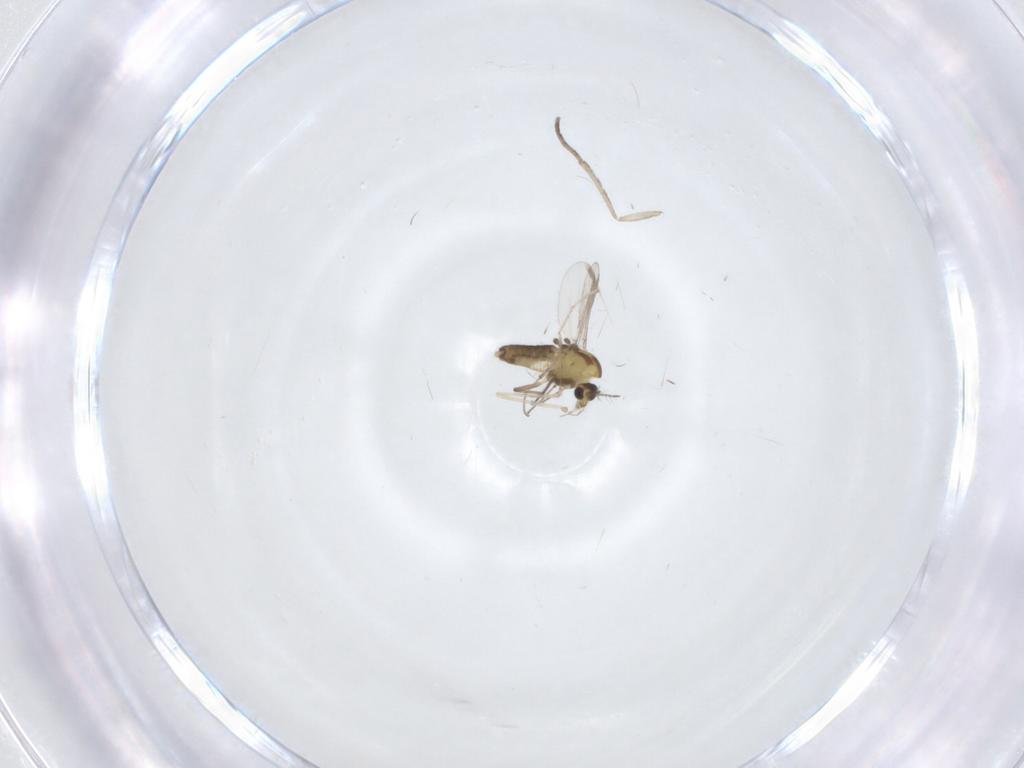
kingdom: Animalia
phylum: Arthropoda
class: Insecta
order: Diptera
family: Chironomidae
